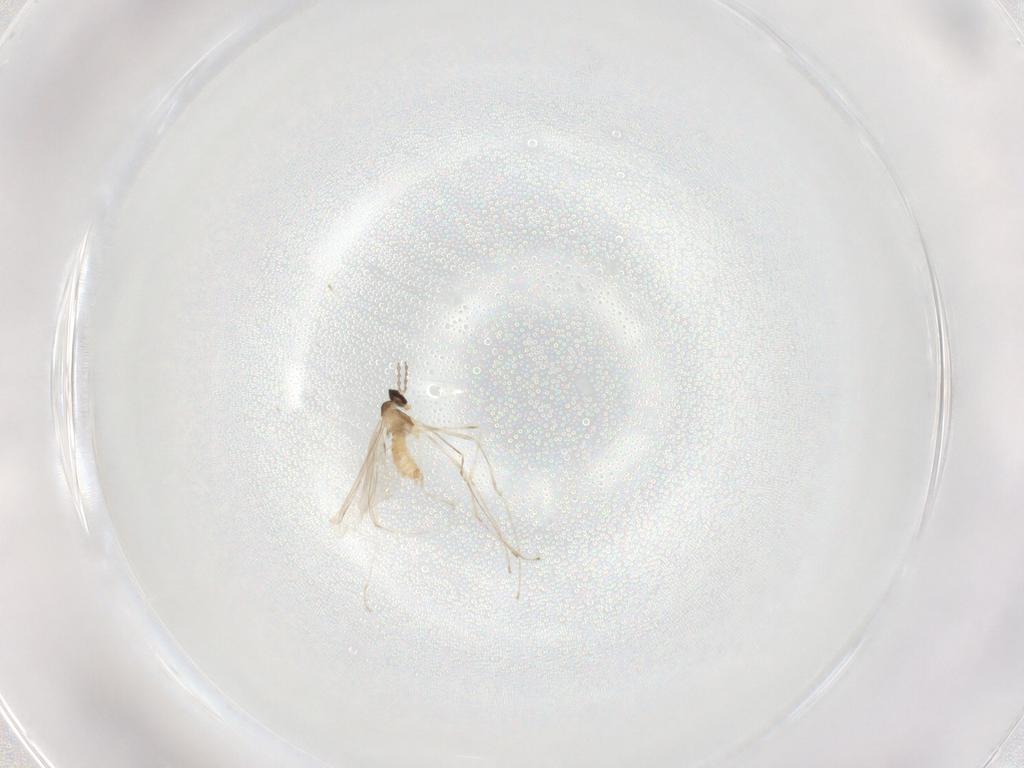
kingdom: Animalia
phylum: Arthropoda
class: Insecta
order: Diptera
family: Cecidomyiidae
